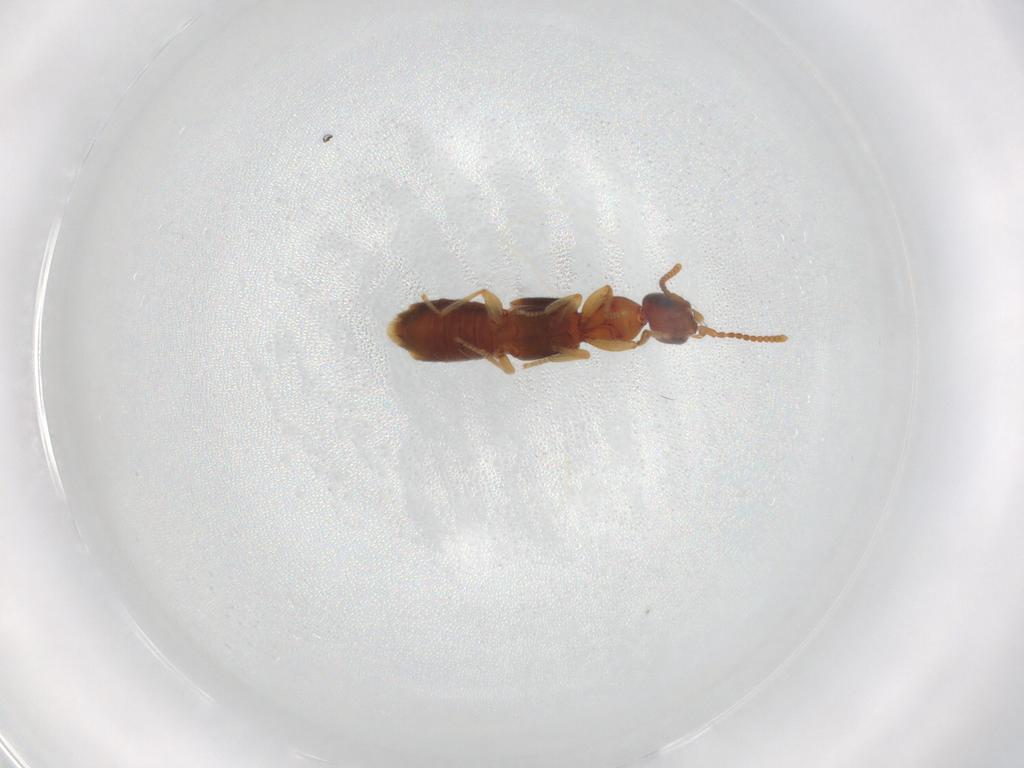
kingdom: Animalia
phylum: Arthropoda
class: Insecta
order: Coleoptera
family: Staphylinidae
